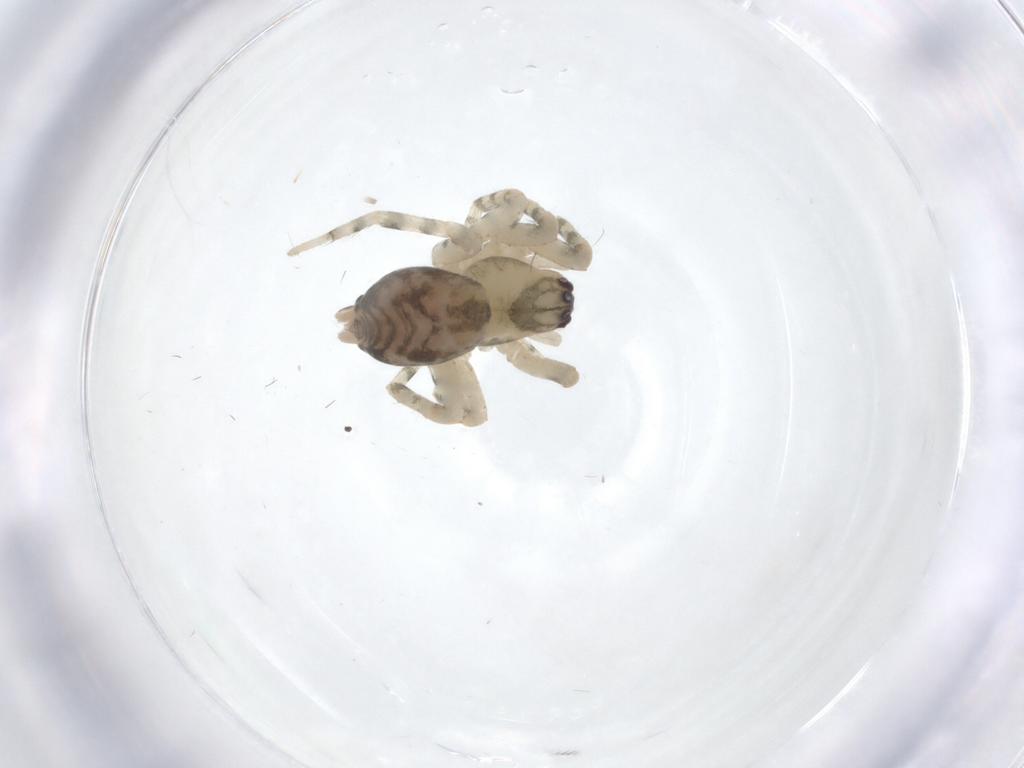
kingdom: Animalia
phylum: Arthropoda
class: Arachnida
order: Araneae
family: Anyphaenidae
